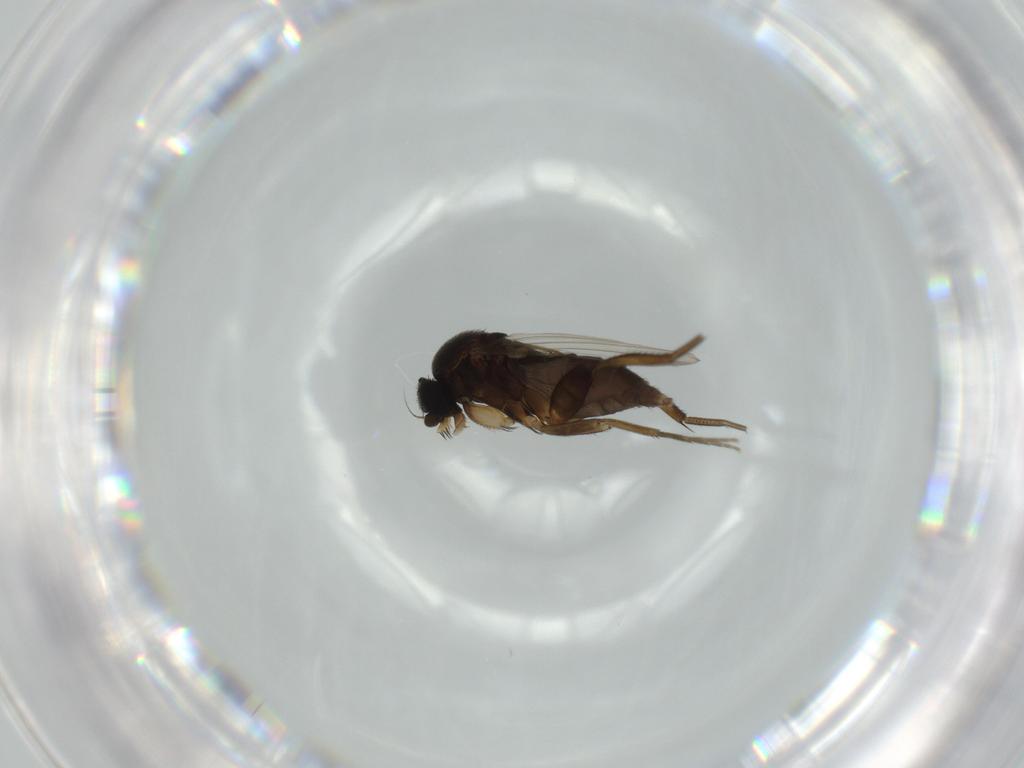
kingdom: Animalia
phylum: Arthropoda
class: Insecta
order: Diptera
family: Phoridae
